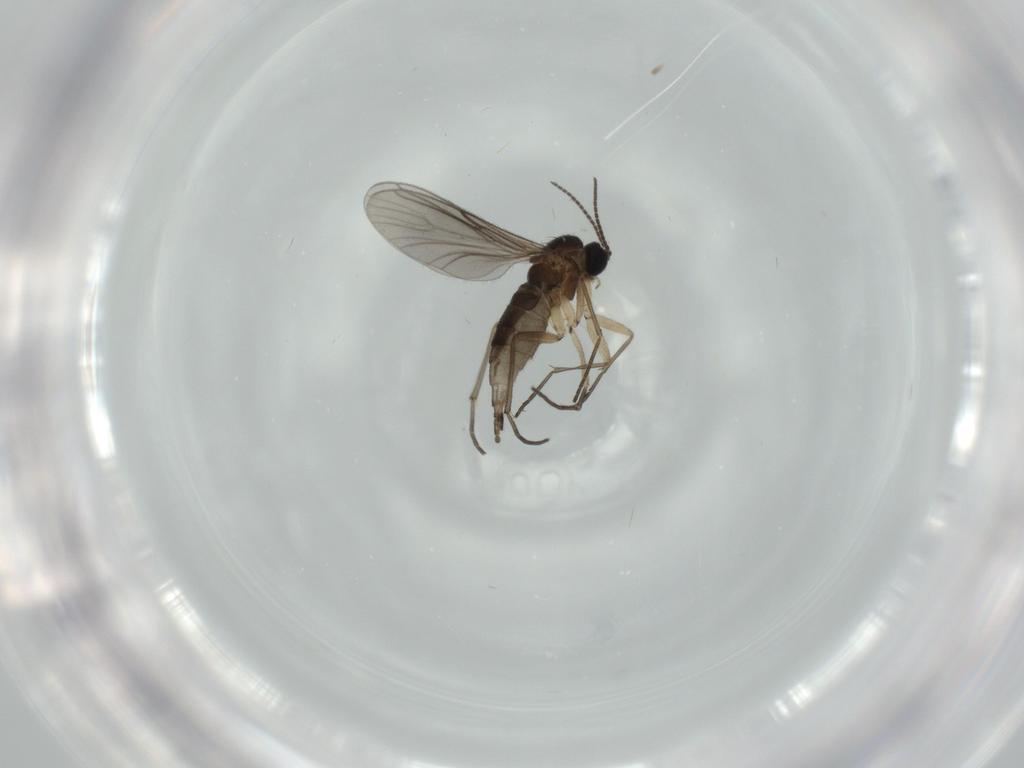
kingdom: Animalia
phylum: Arthropoda
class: Insecta
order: Diptera
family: Sciaridae
